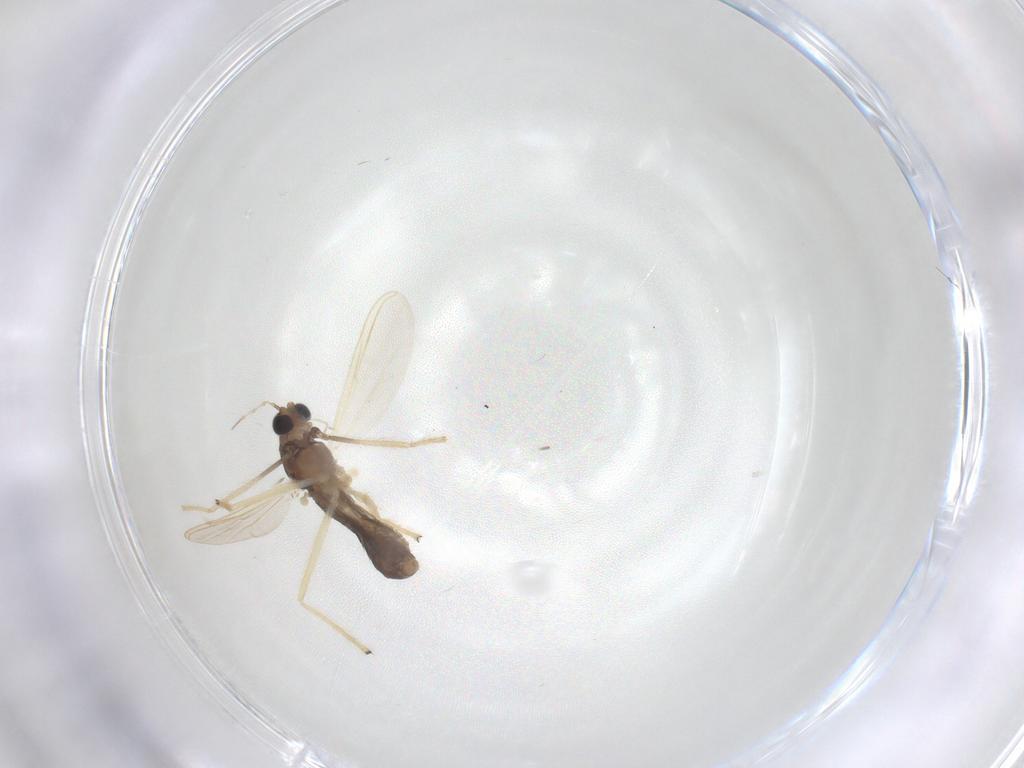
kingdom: Animalia
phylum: Arthropoda
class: Insecta
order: Diptera
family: Chironomidae
